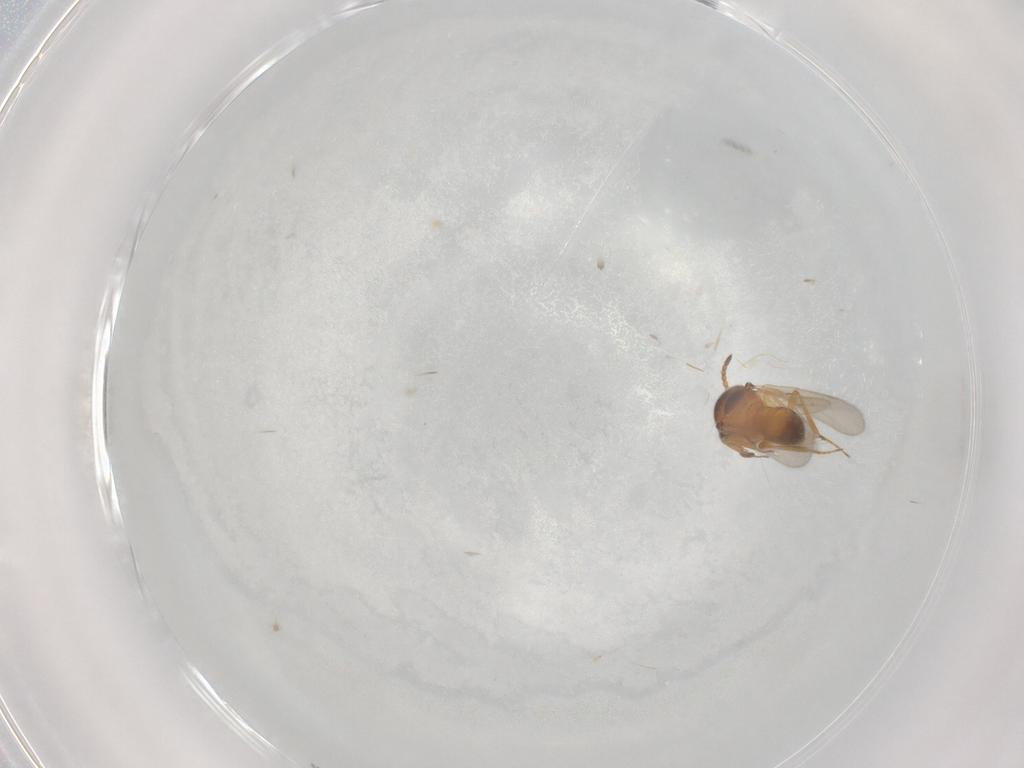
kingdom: Animalia
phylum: Arthropoda
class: Insecta
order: Hymenoptera
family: Scelionidae
